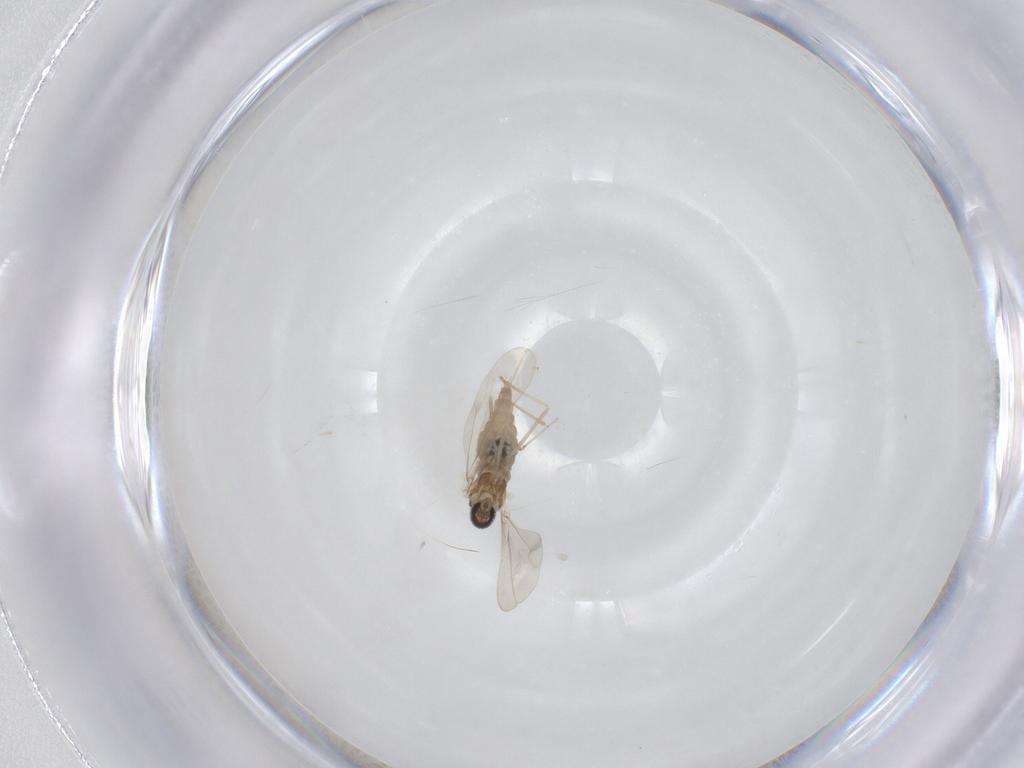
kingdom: Animalia
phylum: Arthropoda
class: Insecta
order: Diptera
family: Cecidomyiidae
